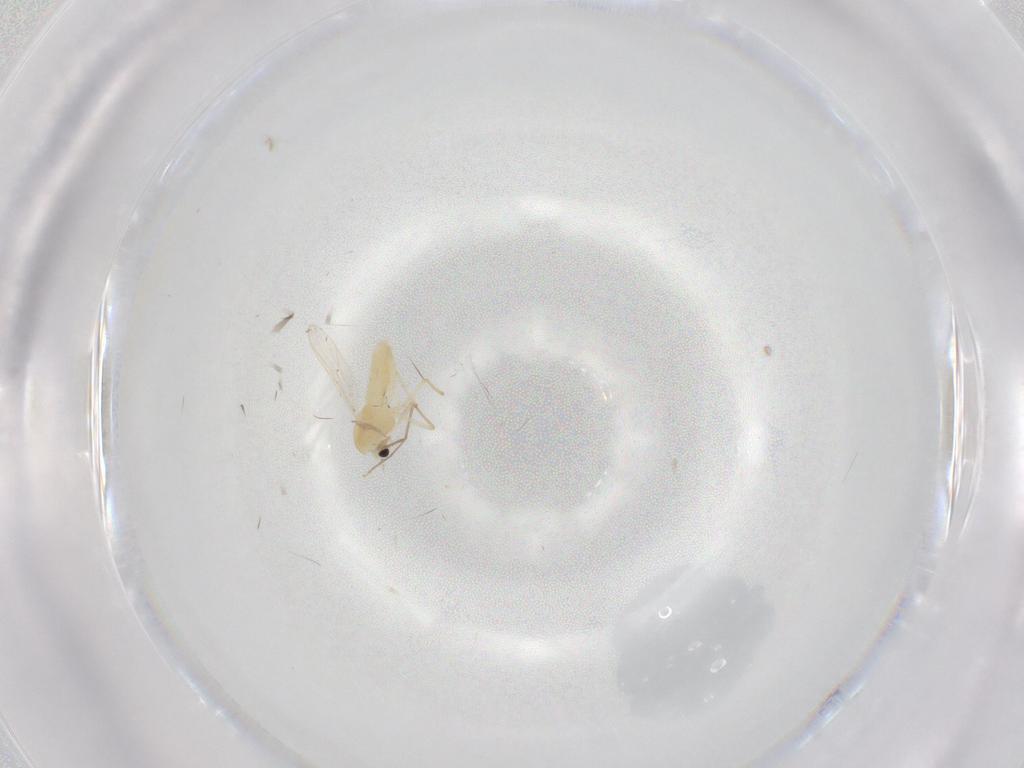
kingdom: Animalia
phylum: Arthropoda
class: Insecta
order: Diptera
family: Chironomidae
